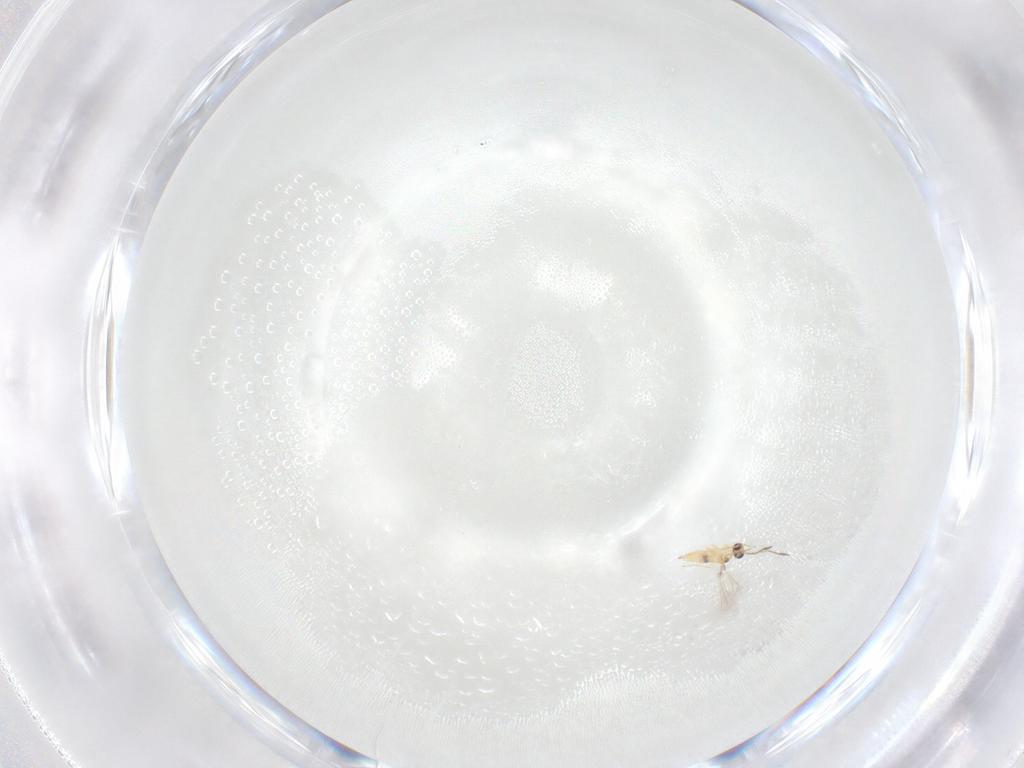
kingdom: Animalia
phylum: Arthropoda
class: Insecta
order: Hymenoptera
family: Mymaridae
